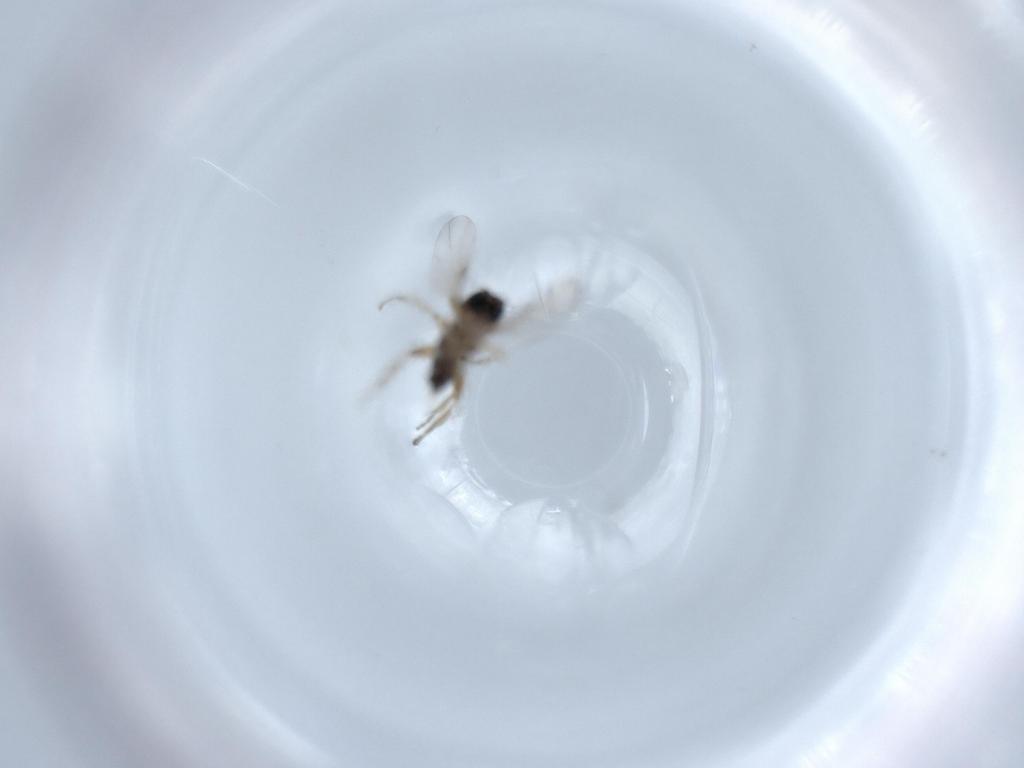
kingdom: Animalia
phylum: Arthropoda
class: Insecta
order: Diptera
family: Phoridae
